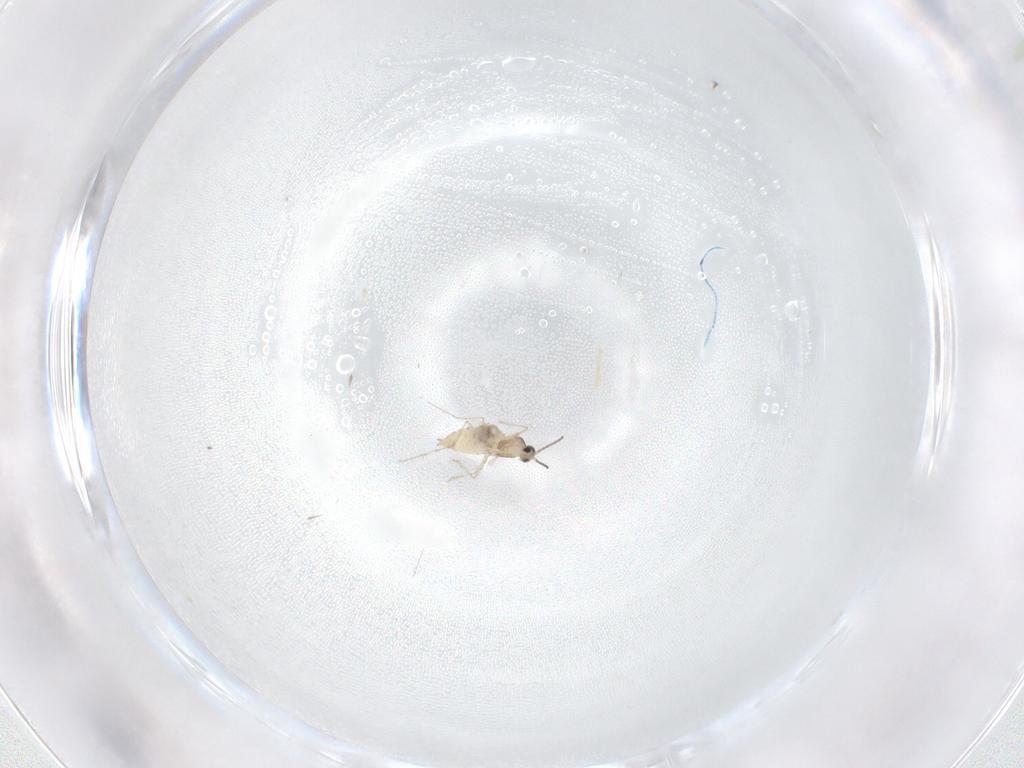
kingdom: Animalia
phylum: Arthropoda
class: Insecta
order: Diptera
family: Cecidomyiidae
